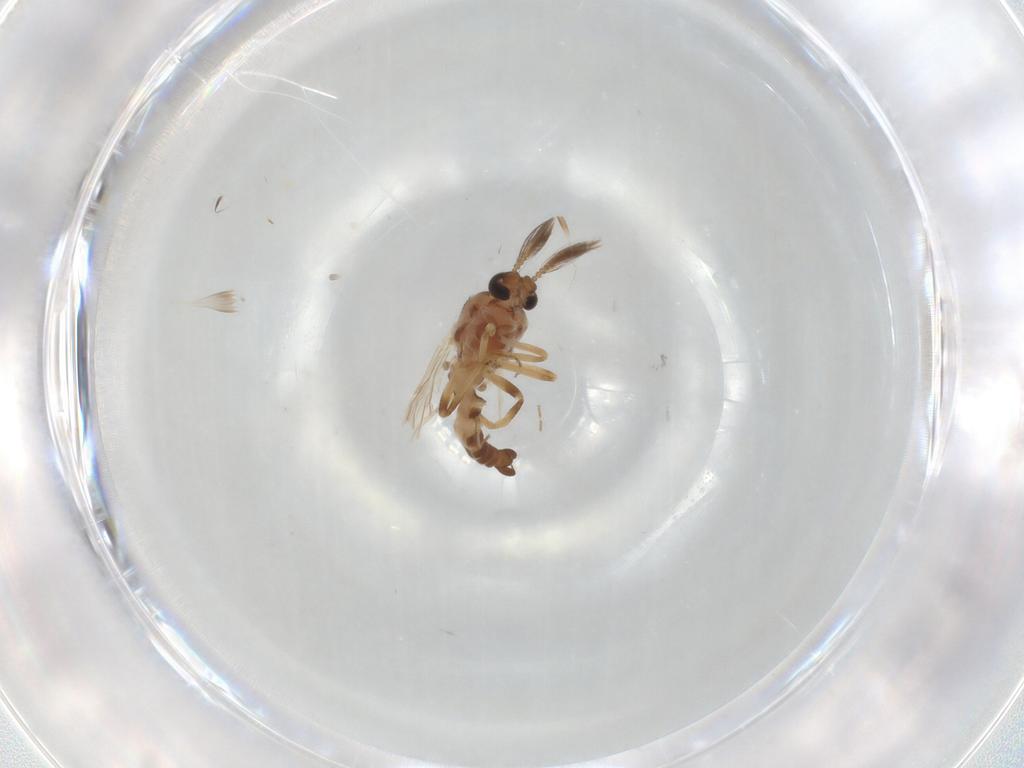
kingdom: Animalia
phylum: Arthropoda
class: Insecta
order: Diptera
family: Ceratopogonidae
